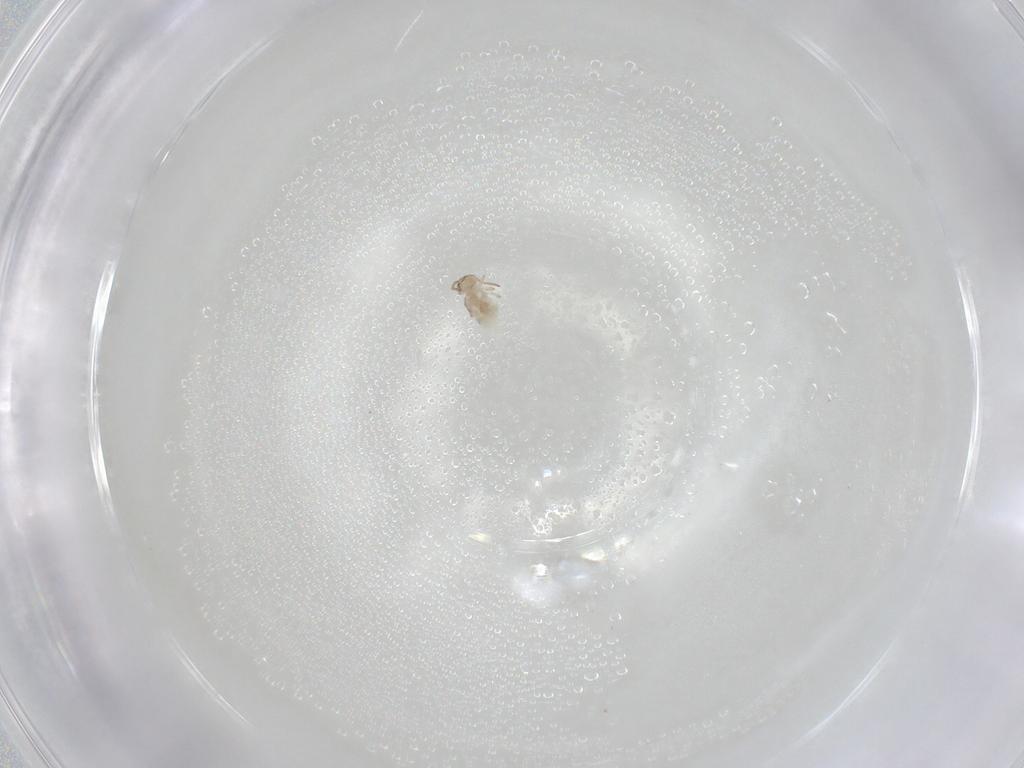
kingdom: Animalia
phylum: Arthropoda
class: Collembola
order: Symphypleona
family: Bourletiellidae
